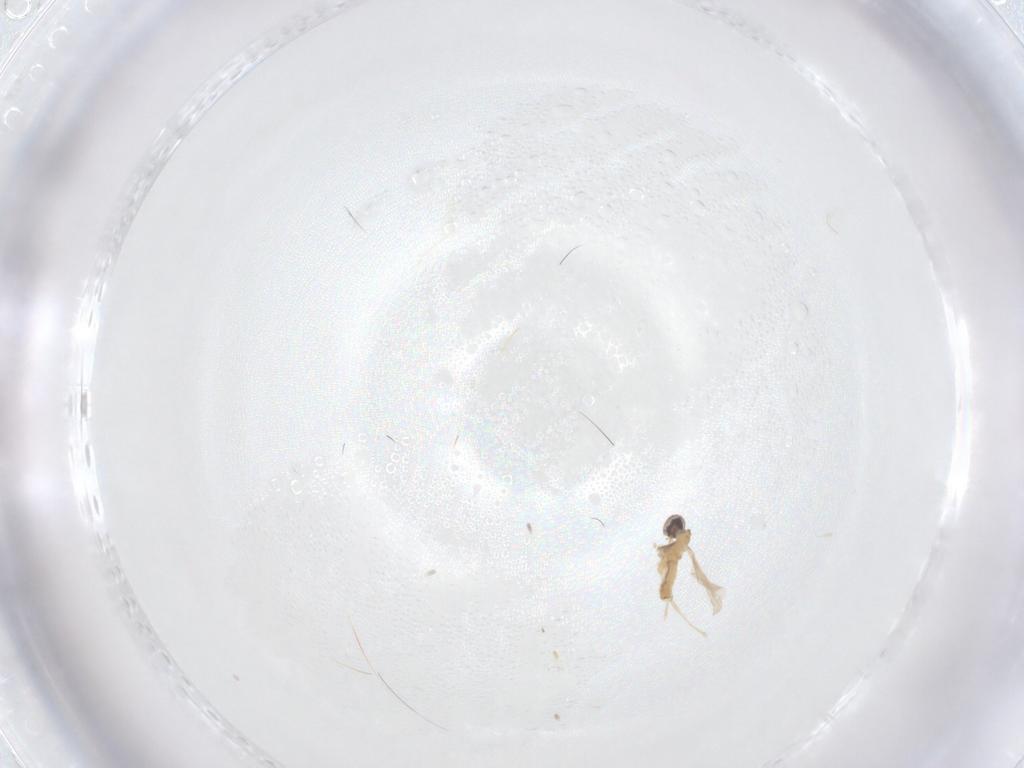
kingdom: Animalia
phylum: Arthropoda
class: Insecta
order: Diptera
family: Cecidomyiidae
